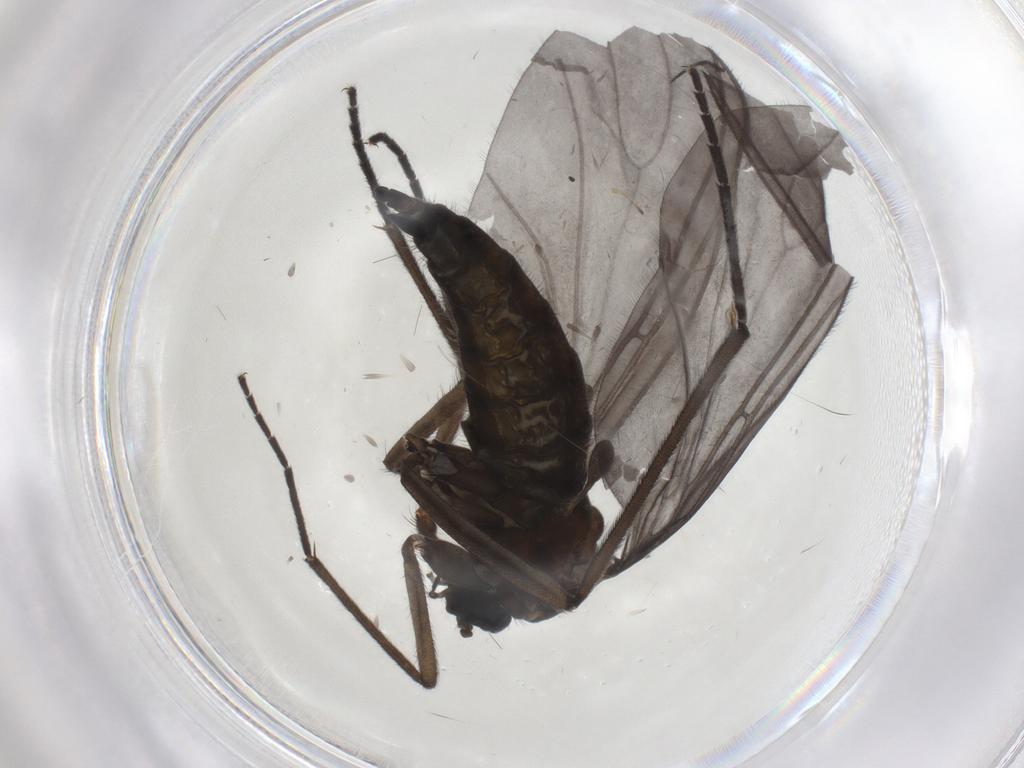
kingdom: Animalia
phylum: Arthropoda
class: Insecta
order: Diptera
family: Sciaridae
